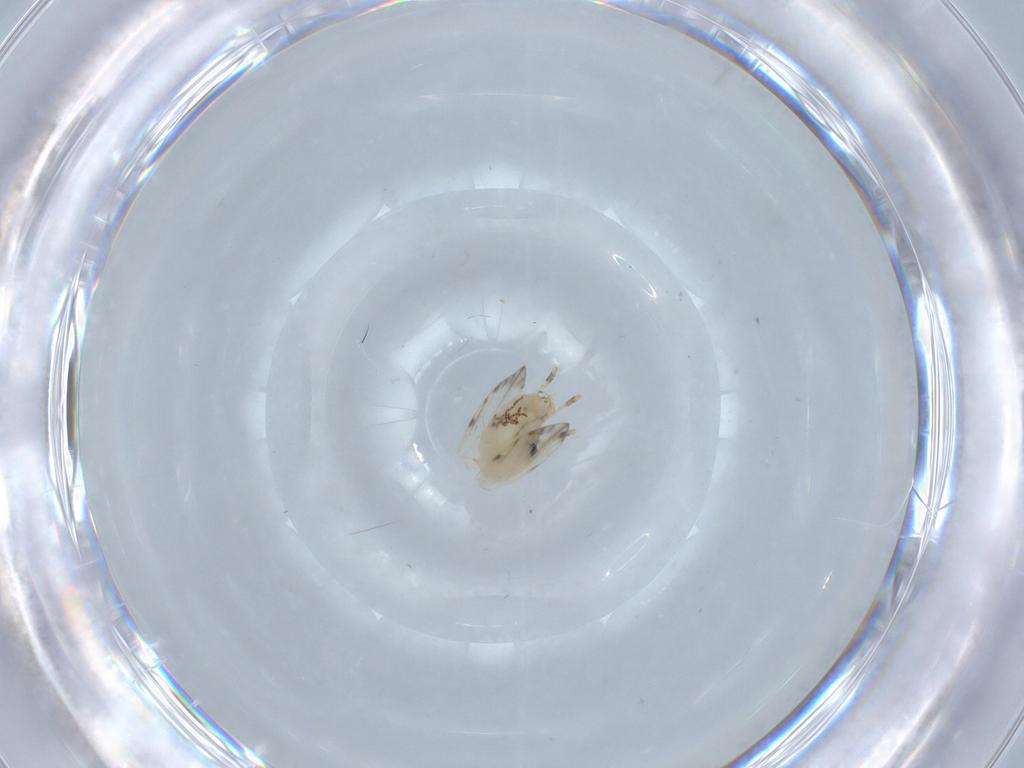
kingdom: Animalia
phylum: Arthropoda
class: Insecta
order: Diptera
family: Psychodidae
